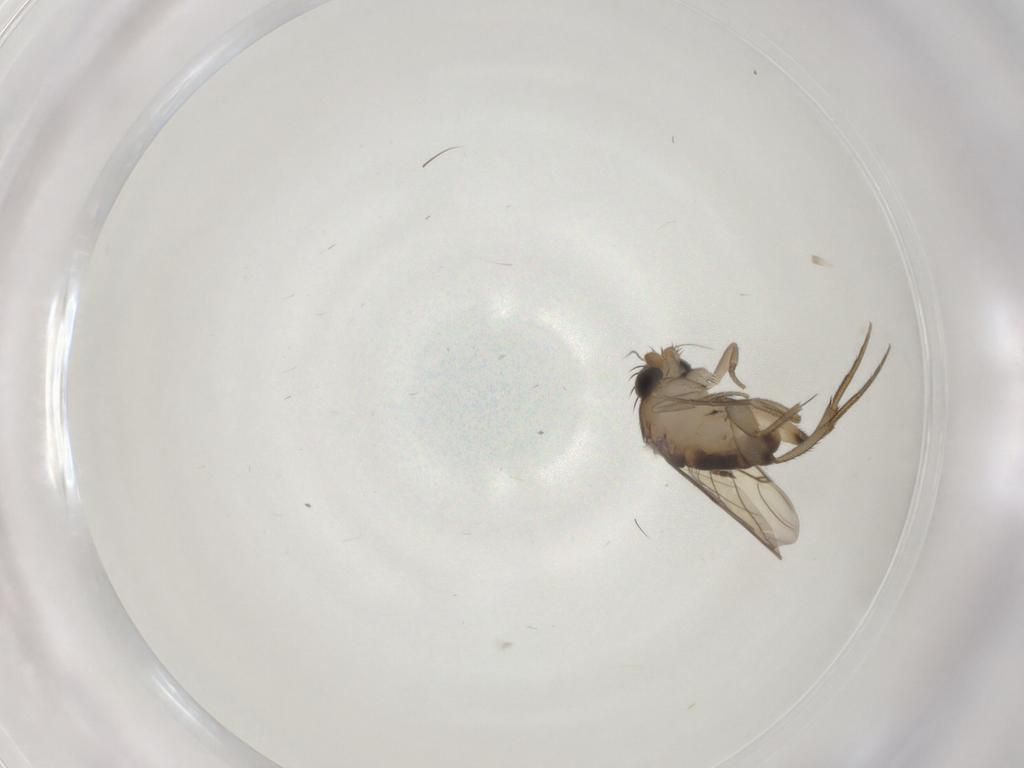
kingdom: Animalia
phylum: Arthropoda
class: Insecta
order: Diptera
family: Phoridae
